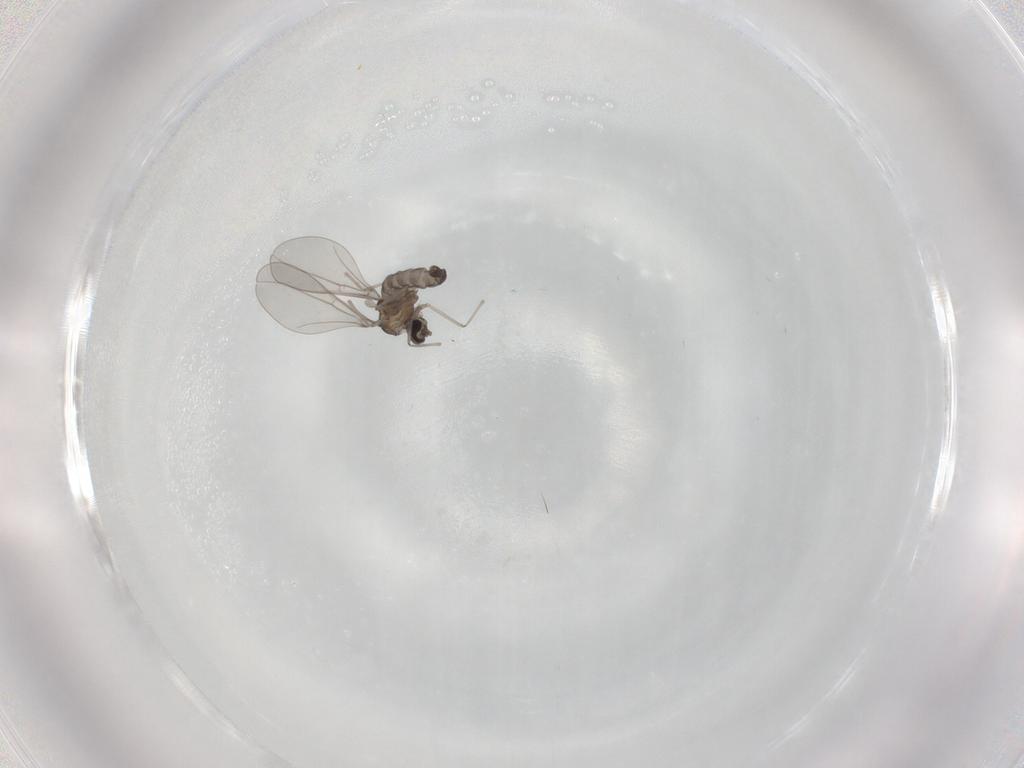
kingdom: Animalia
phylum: Arthropoda
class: Insecta
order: Diptera
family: Cecidomyiidae
